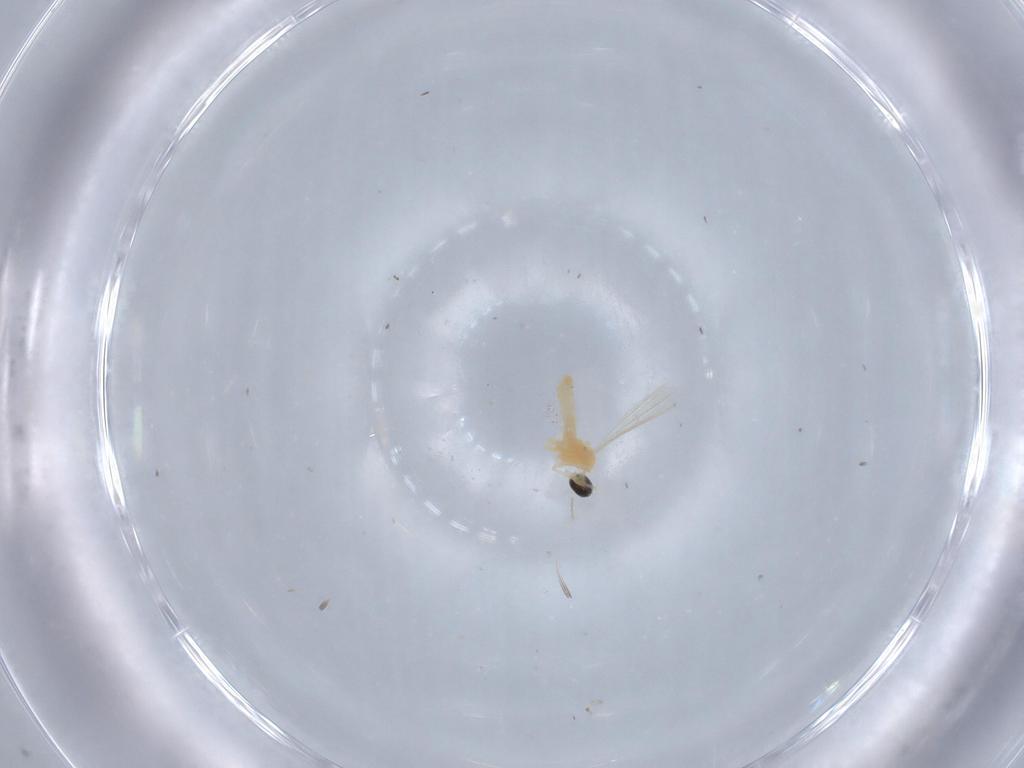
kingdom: Animalia
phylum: Arthropoda
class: Insecta
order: Diptera
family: Cecidomyiidae
